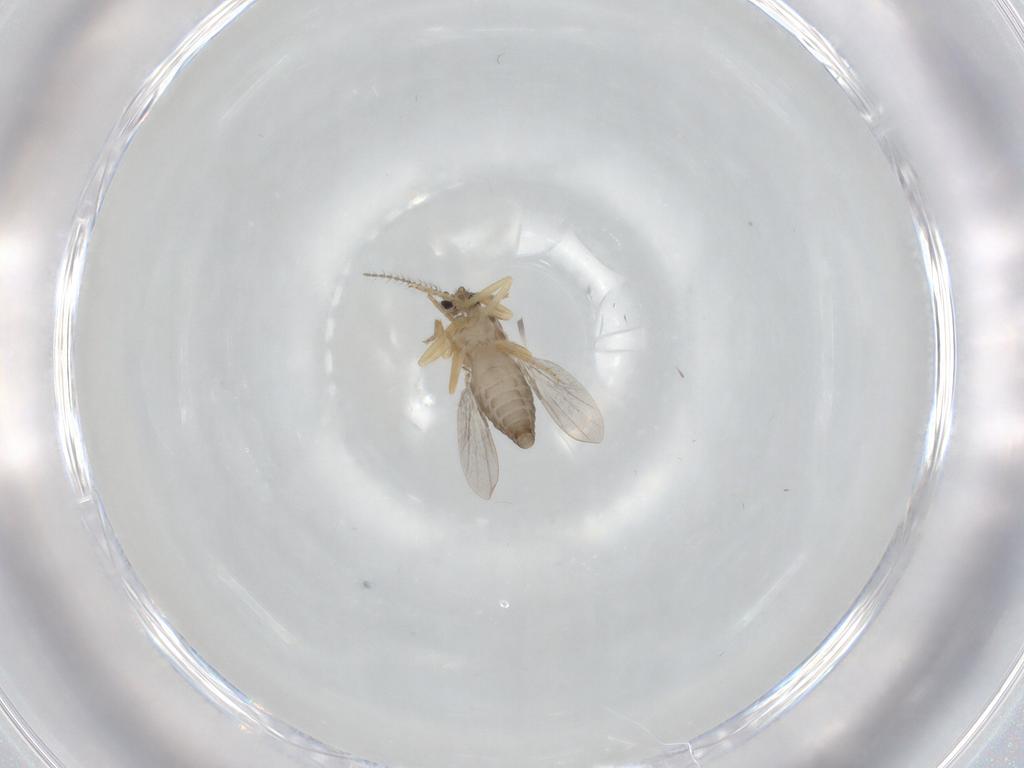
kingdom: Animalia
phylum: Arthropoda
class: Insecta
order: Diptera
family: Ceratopogonidae
